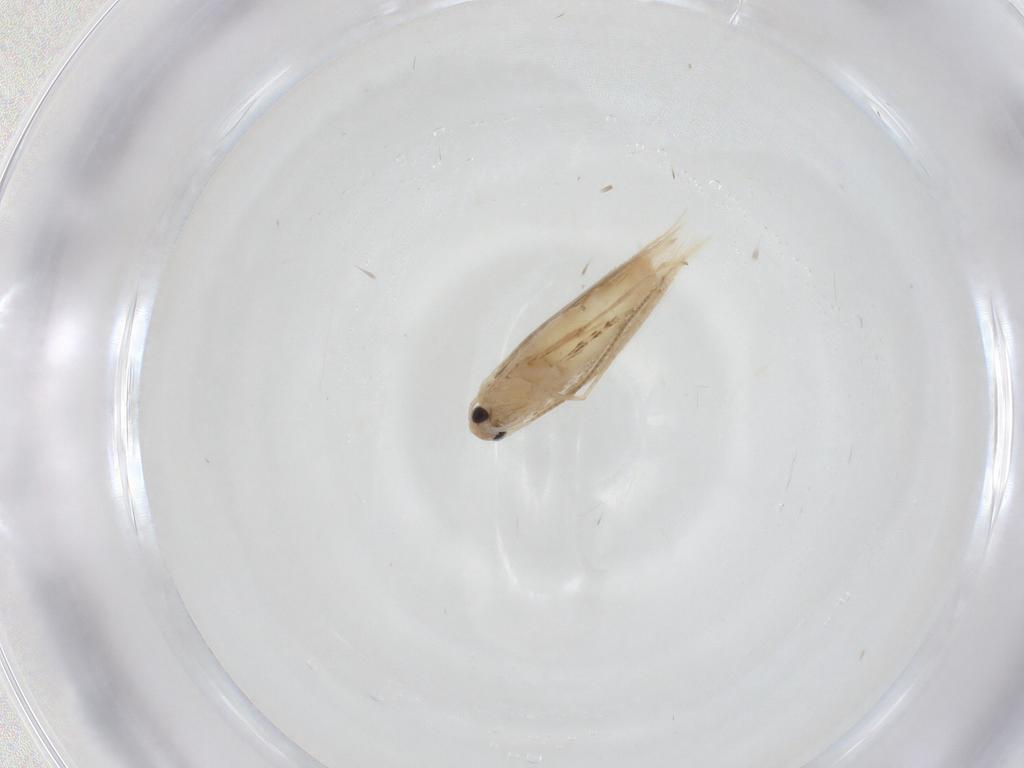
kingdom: Animalia
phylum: Arthropoda
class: Insecta
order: Lepidoptera
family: Gracillariidae
